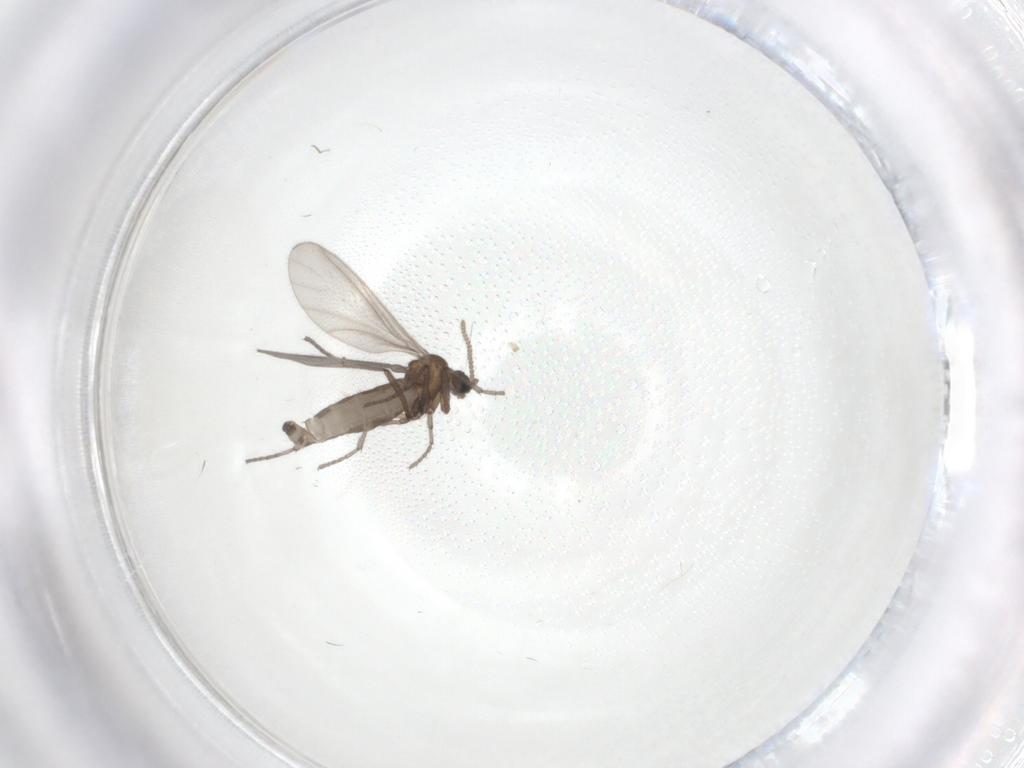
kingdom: Animalia
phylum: Arthropoda
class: Insecta
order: Diptera
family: Sciaridae
